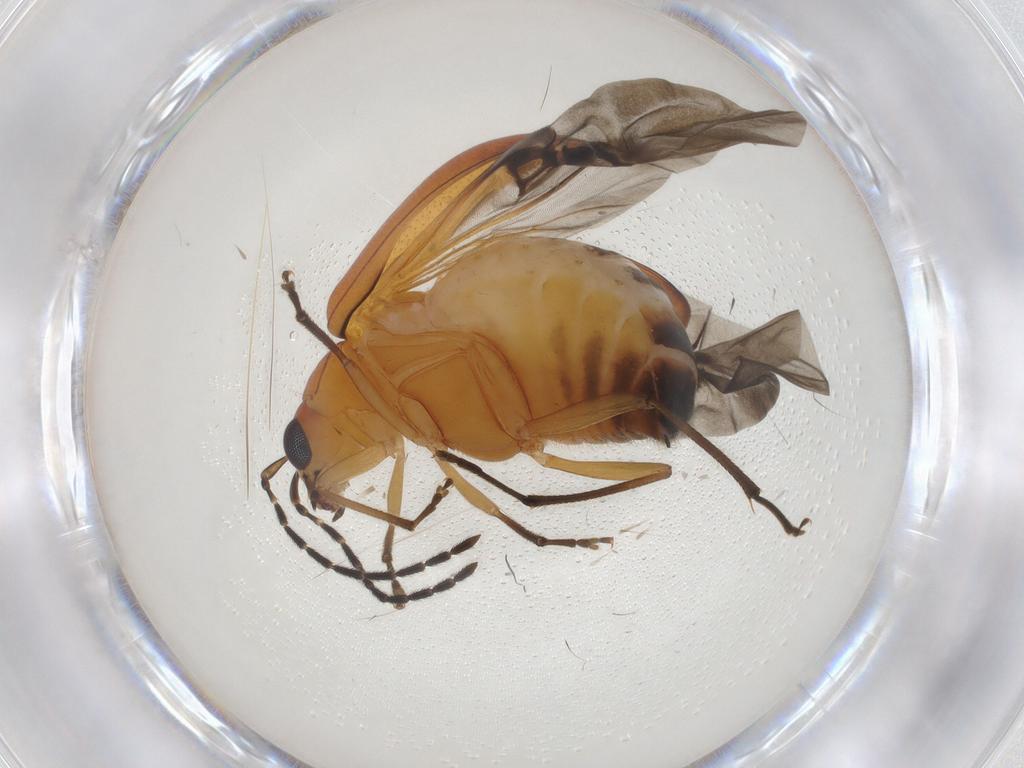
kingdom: Animalia
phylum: Arthropoda
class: Insecta
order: Coleoptera
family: Chrysomelidae
